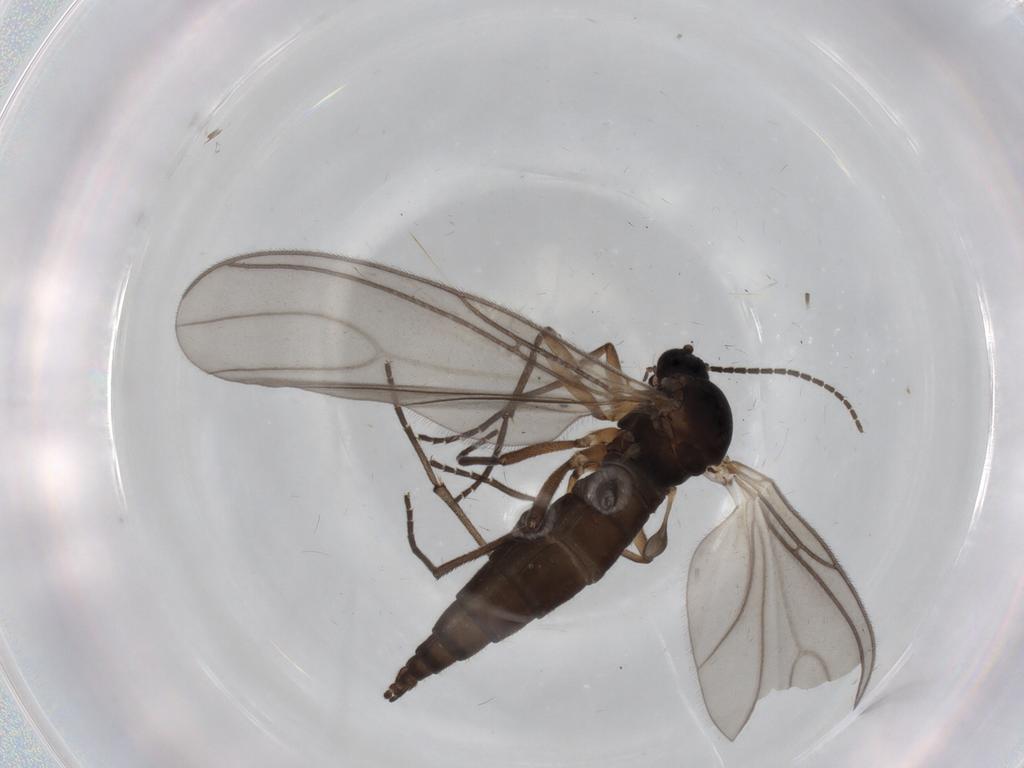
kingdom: Animalia
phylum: Arthropoda
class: Insecta
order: Diptera
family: Sciaridae
